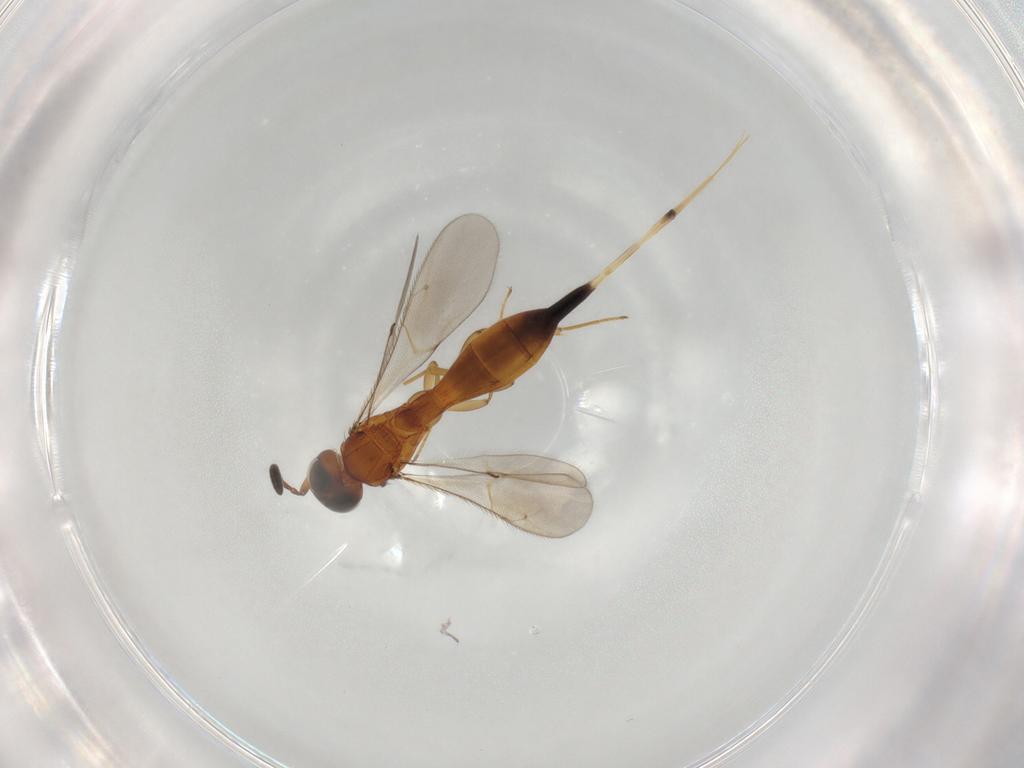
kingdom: Animalia
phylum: Arthropoda
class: Insecta
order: Hymenoptera
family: Scelionidae
